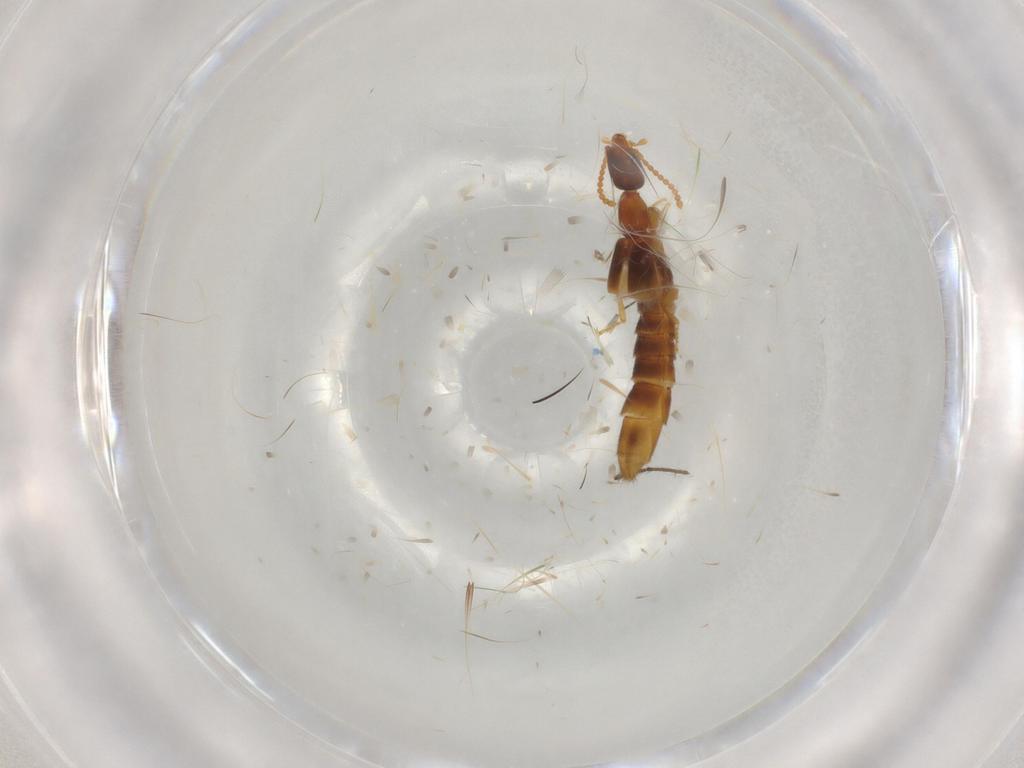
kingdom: Animalia
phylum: Arthropoda
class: Insecta
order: Coleoptera
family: Staphylinidae
